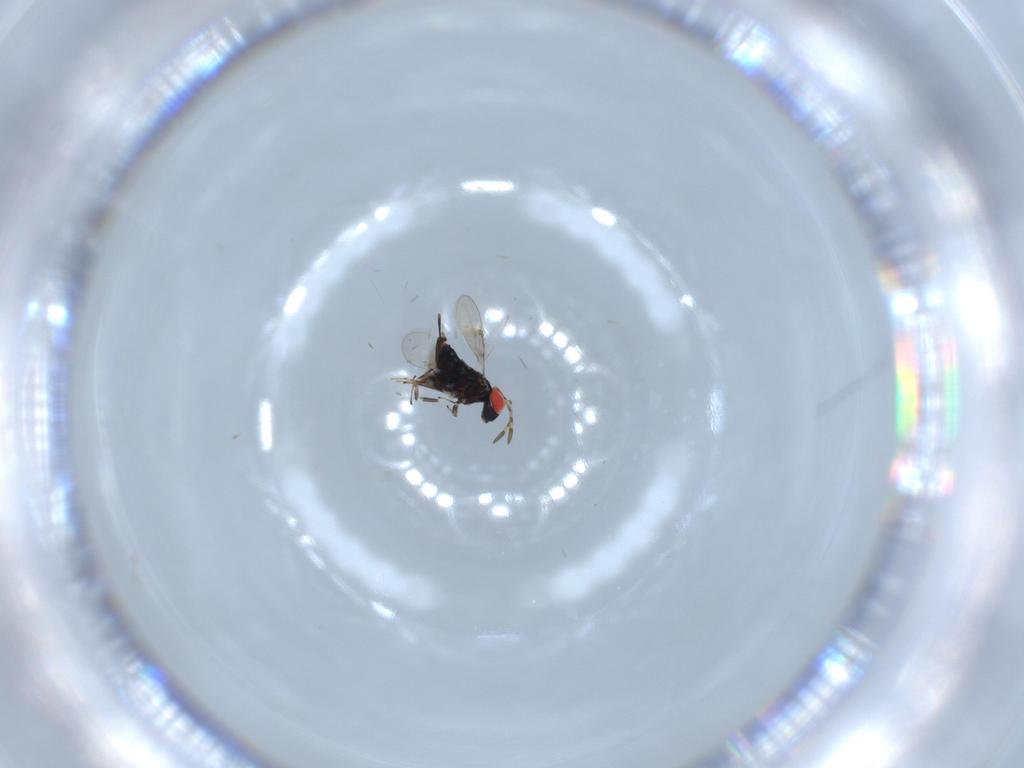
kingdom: Animalia
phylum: Arthropoda
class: Insecta
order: Hymenoptera
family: Azotidae
